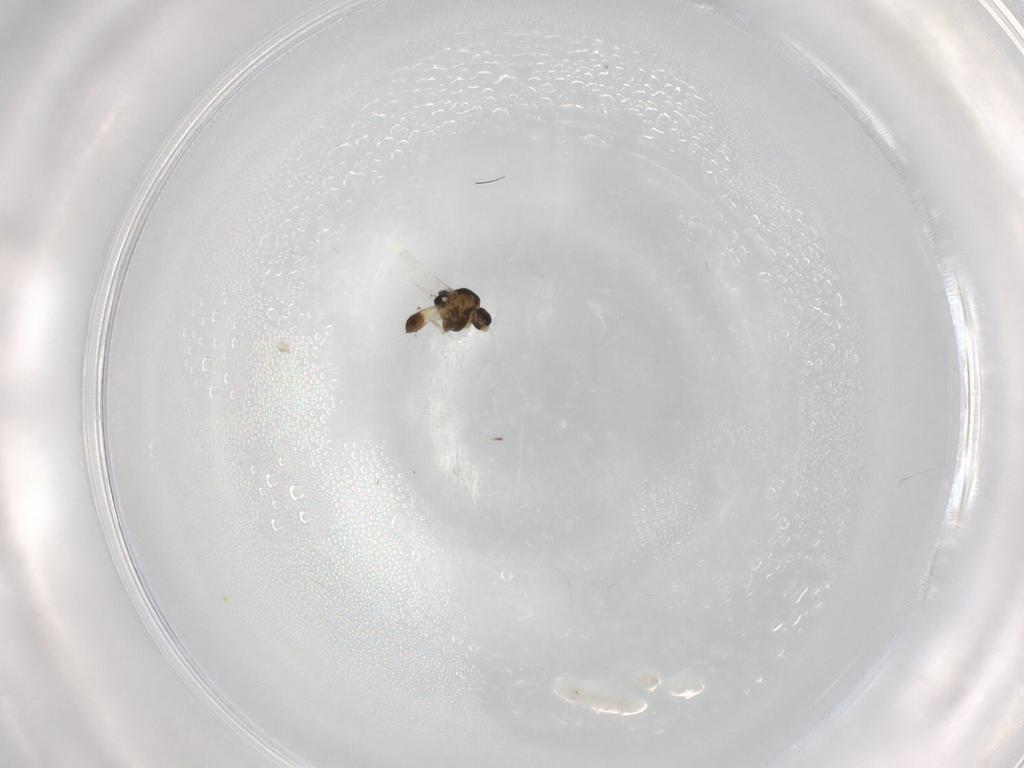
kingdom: Animalia
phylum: Arthropoda
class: Insecta
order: Diptera
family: Chironomidae
